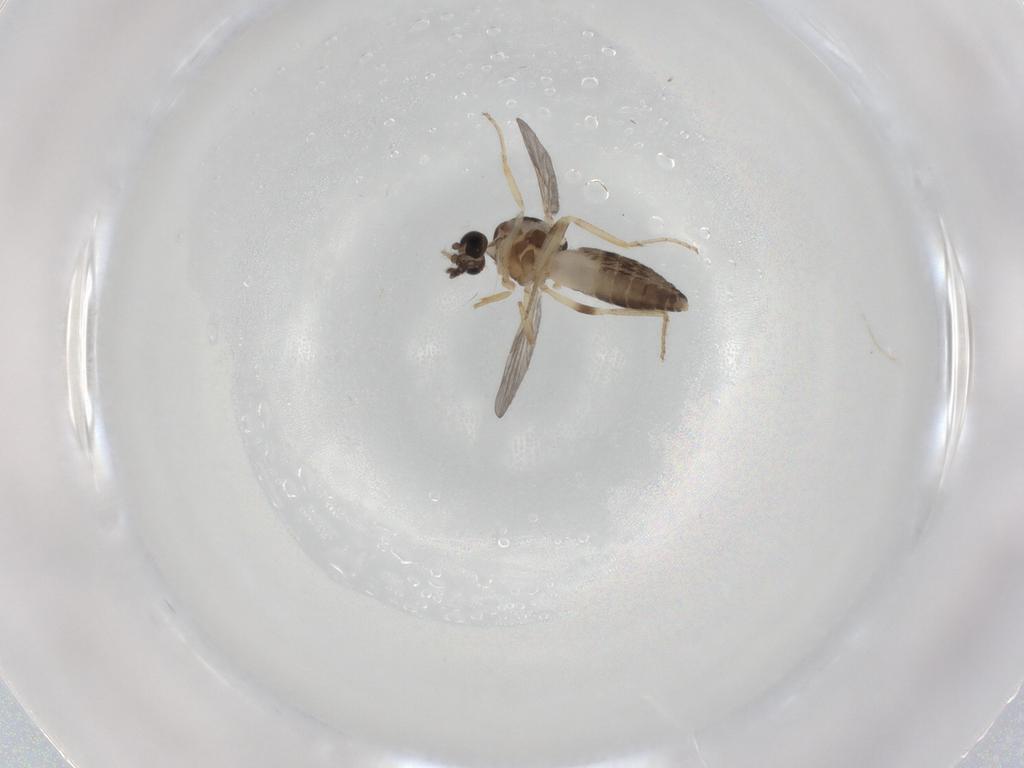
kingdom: Animalia
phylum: Arthropoda
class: Insecta
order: Diptera
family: Ceratopogonidae
